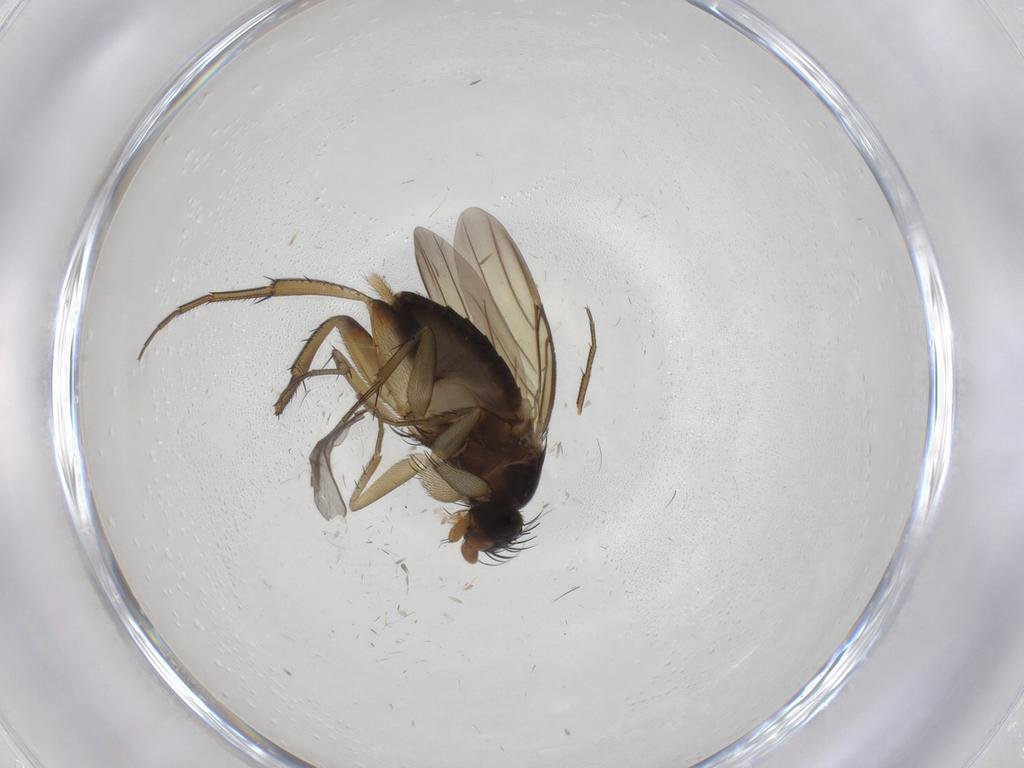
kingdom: Animalia
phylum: Arthropoda
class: Insecta
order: Diptera
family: Phoridae
